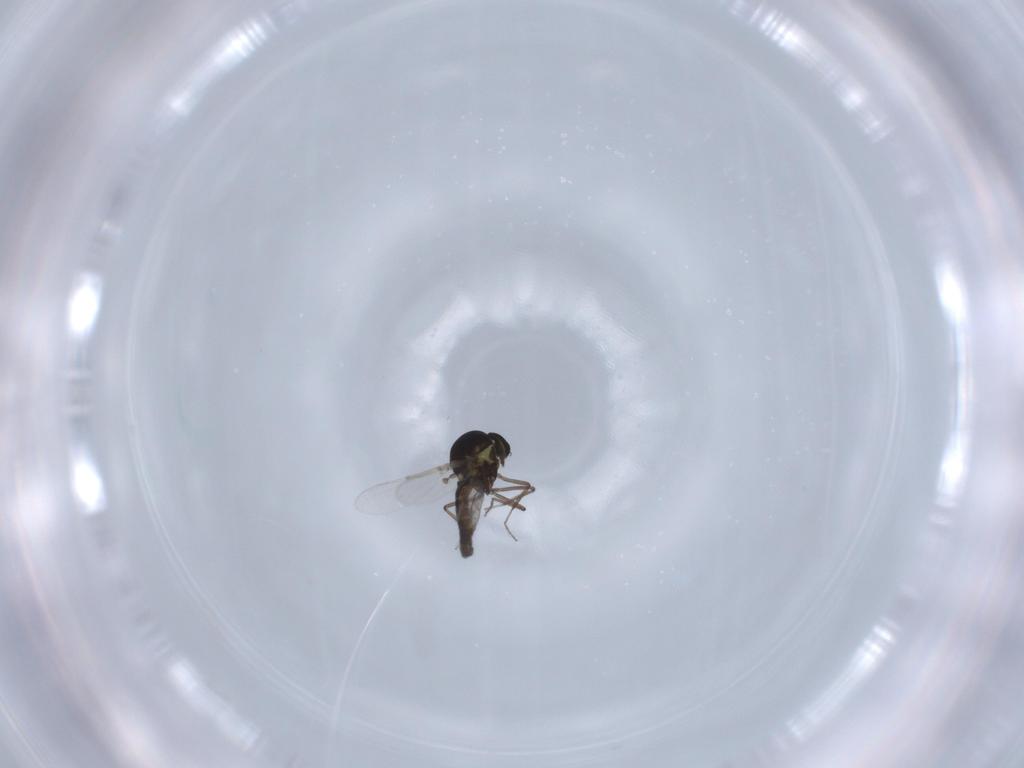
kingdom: Animalia
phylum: Arthropoda
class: Insecta
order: Diptera
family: Ceratopogonidae
